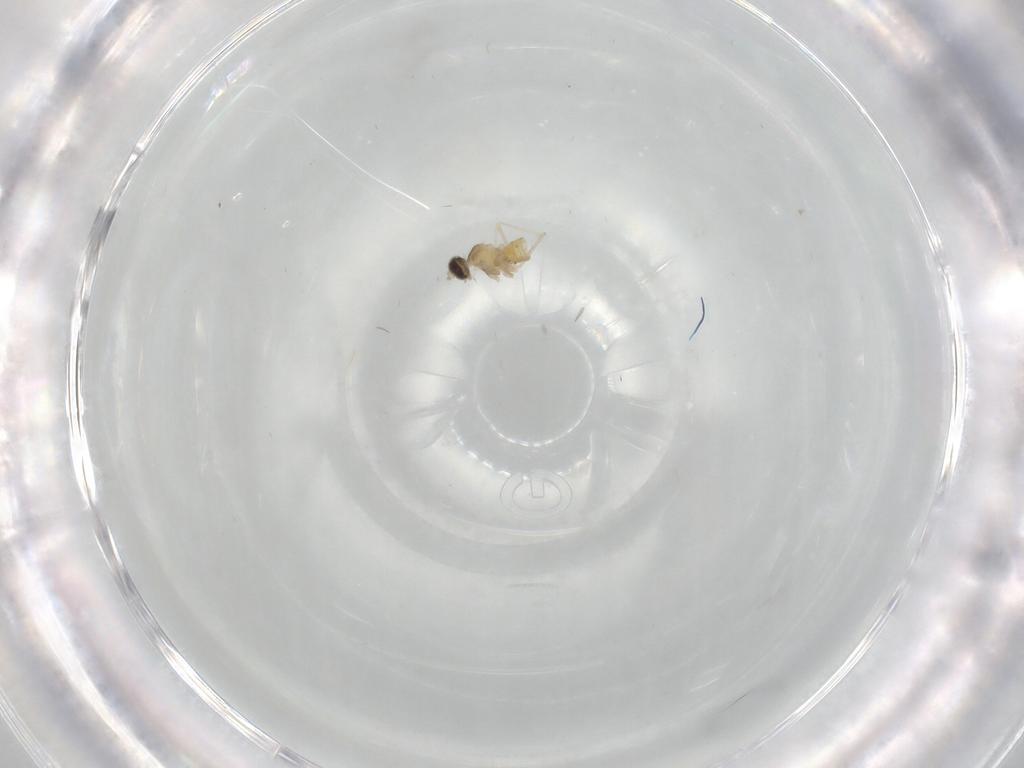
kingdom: Animalia
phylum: Arthropoda
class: Insecta
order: Diptera
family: Cecidomyiidae
